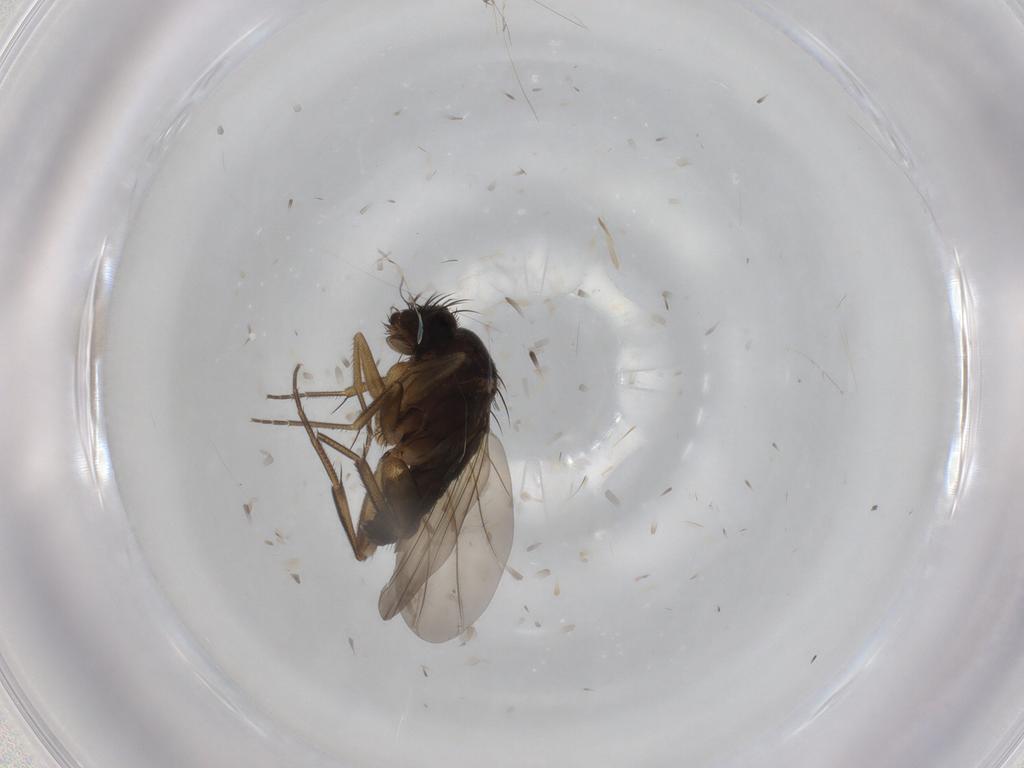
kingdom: Animalia
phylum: Arthropoda
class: Insecta
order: Diptera
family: Phoridae
